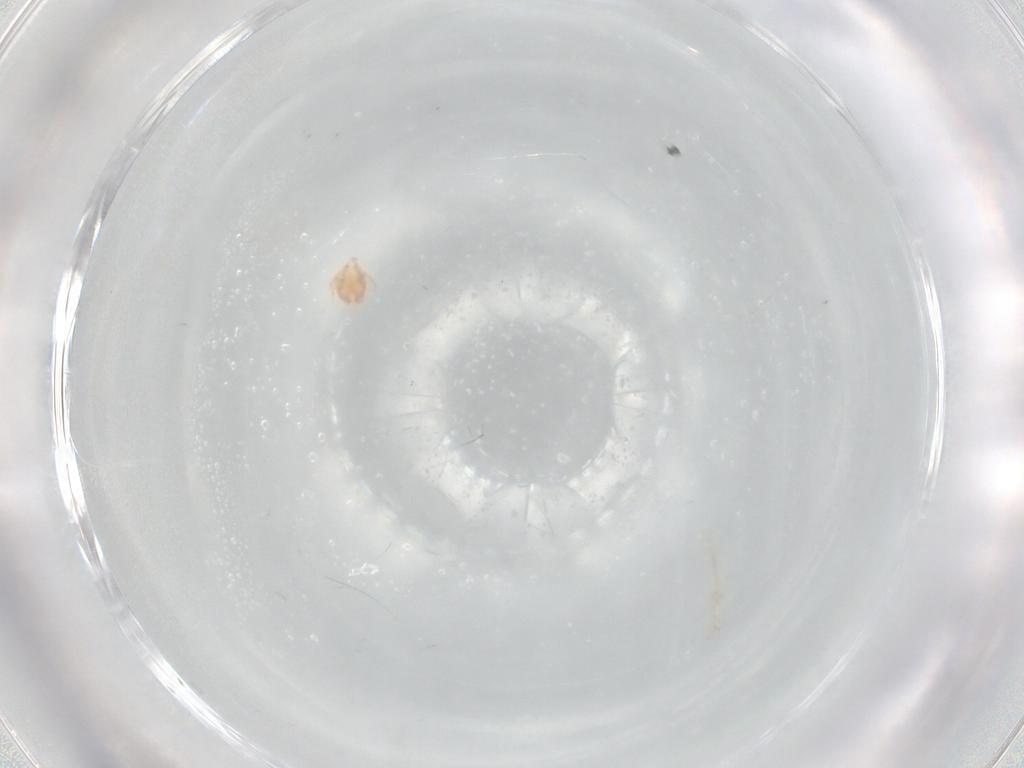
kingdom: Animalia
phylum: Arthropoda
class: Arachnida
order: Trombidiformes
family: Hygrobatidae
